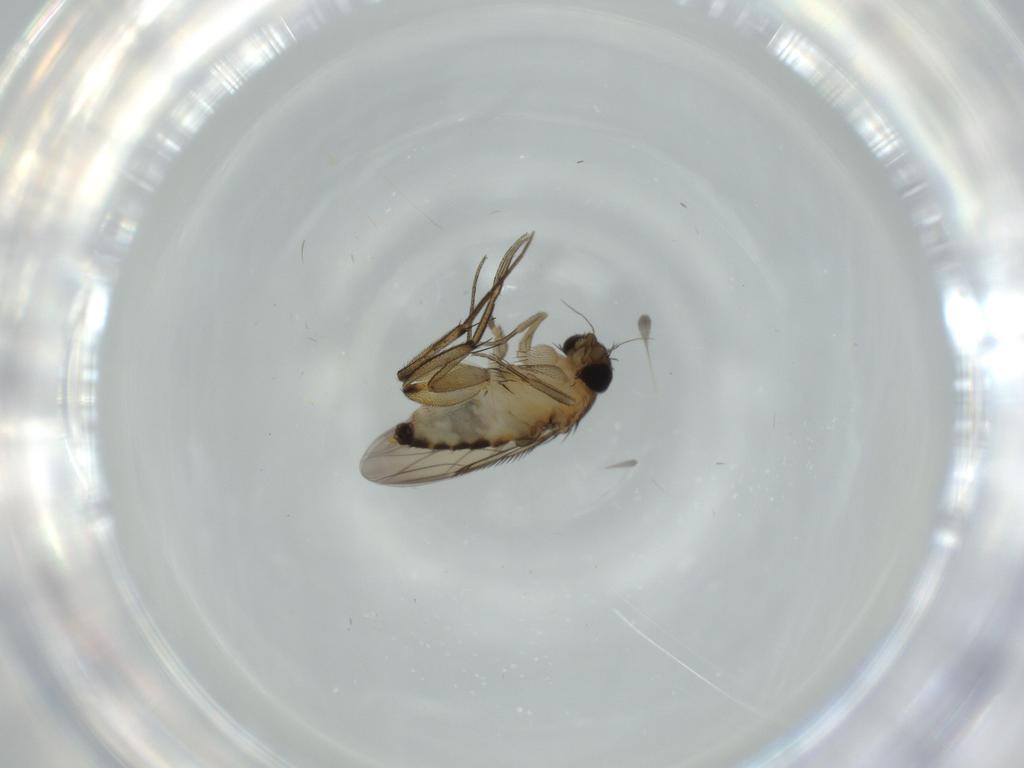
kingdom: Animalia
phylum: Arthropoda
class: Insecta
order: Diptera
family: Phoridae
